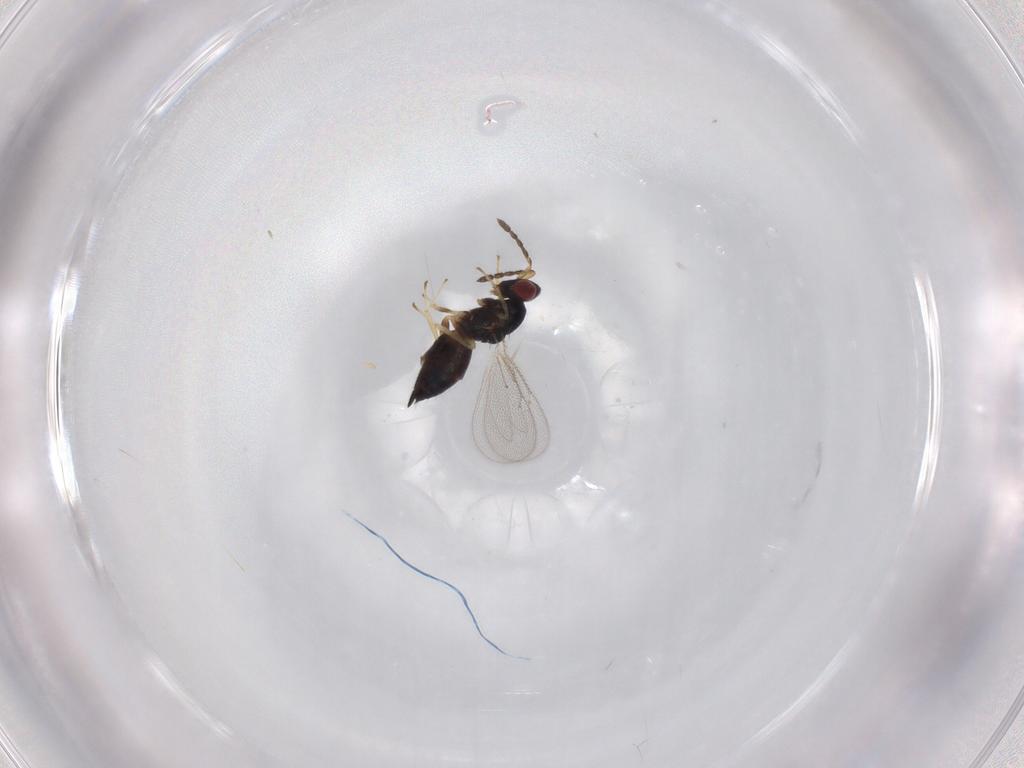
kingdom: Animalia
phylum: Arthropoda
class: Insecta
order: Hymenoptera
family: Eulophidae
